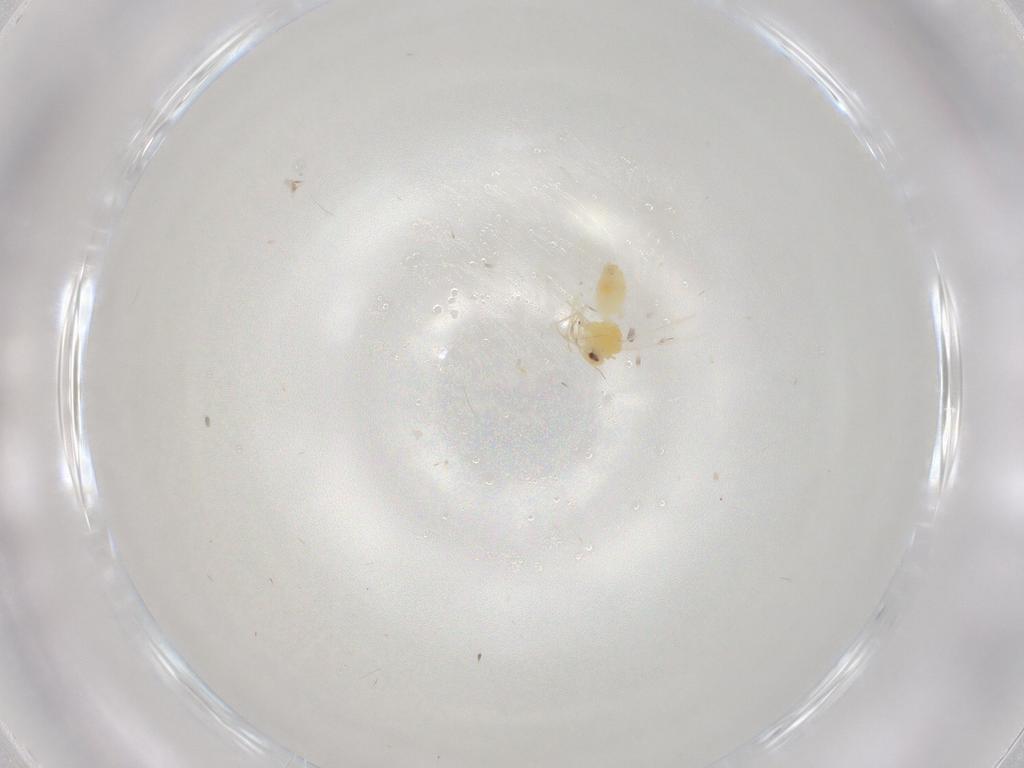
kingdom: Animalia
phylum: Arthropoda
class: Insecta
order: Hemiptera
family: Aleyrodidae
